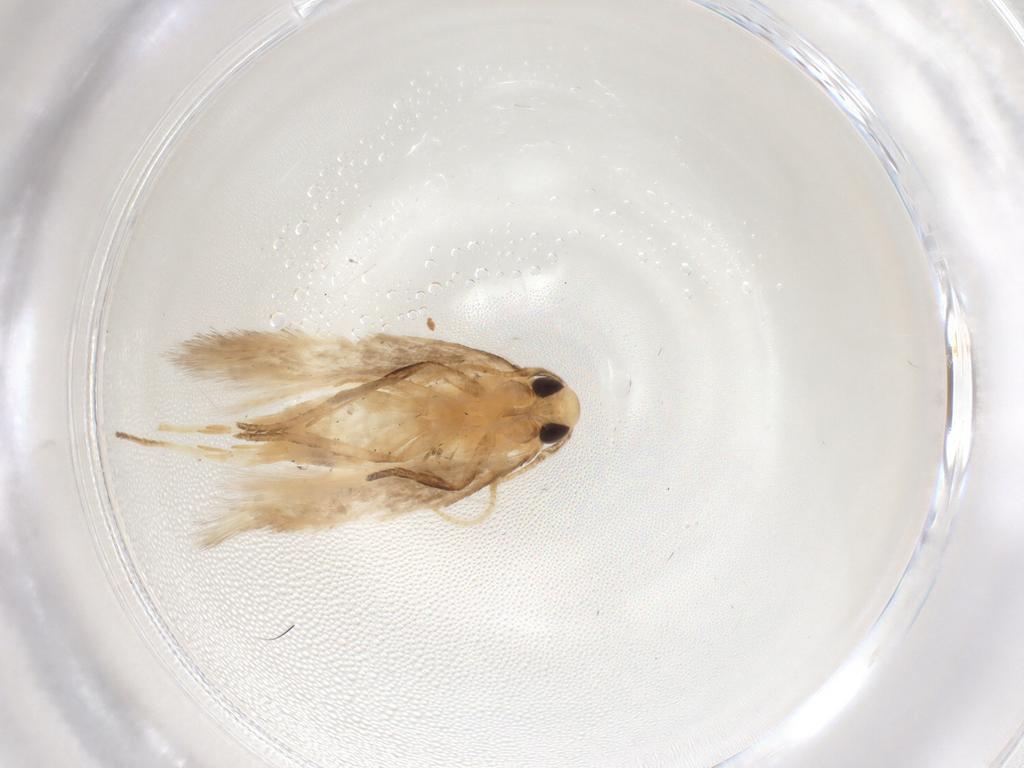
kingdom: Animalia
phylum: Arthropoda
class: Insecta
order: Lepidoptera
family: Cosmopterigidae
